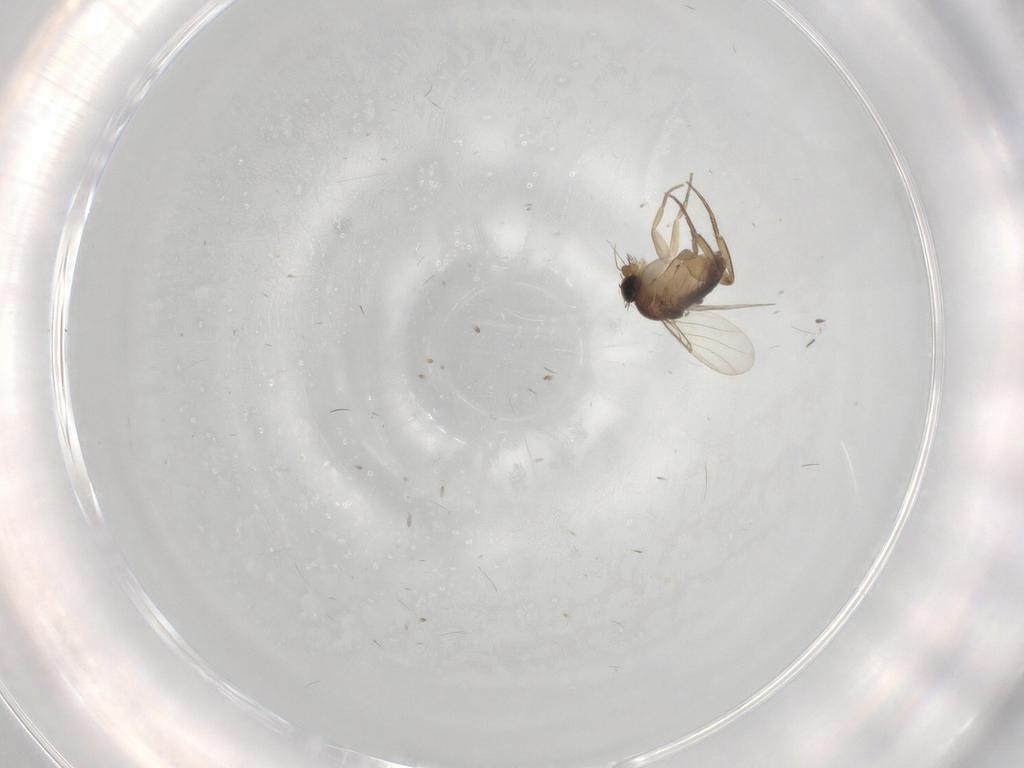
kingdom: Animalia
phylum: Arthropoda
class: Insecta
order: Diptera
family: Phoridae
